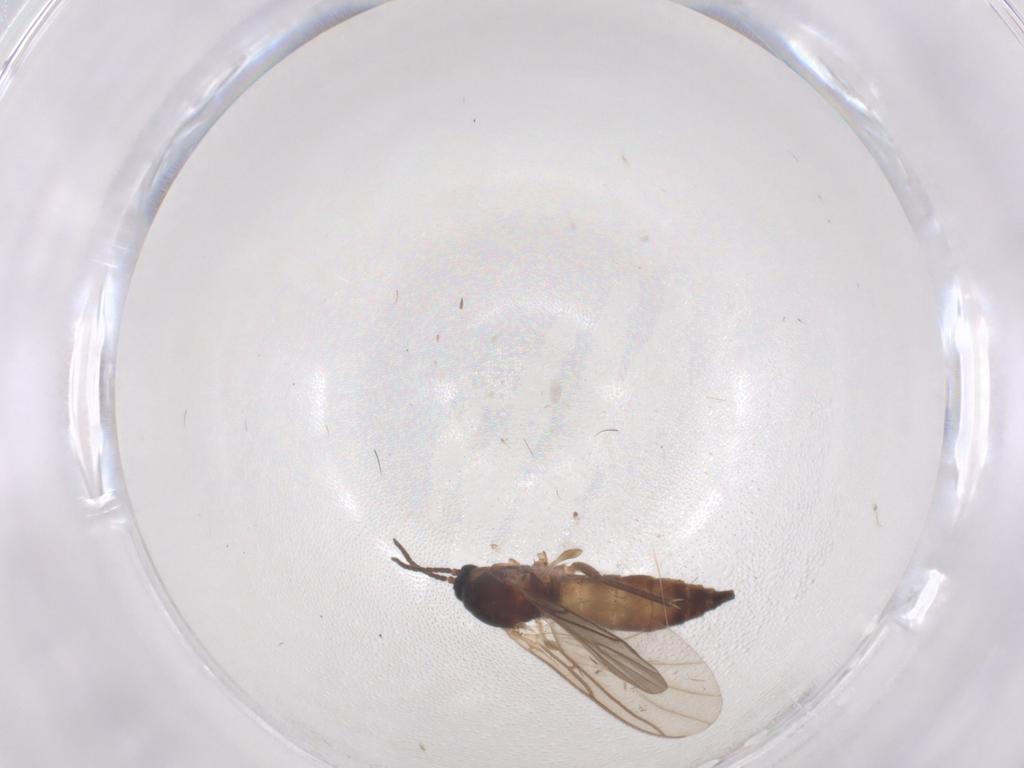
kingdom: Animalia
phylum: Arthropoda
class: Insecta
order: Diptera
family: Sciaridae
